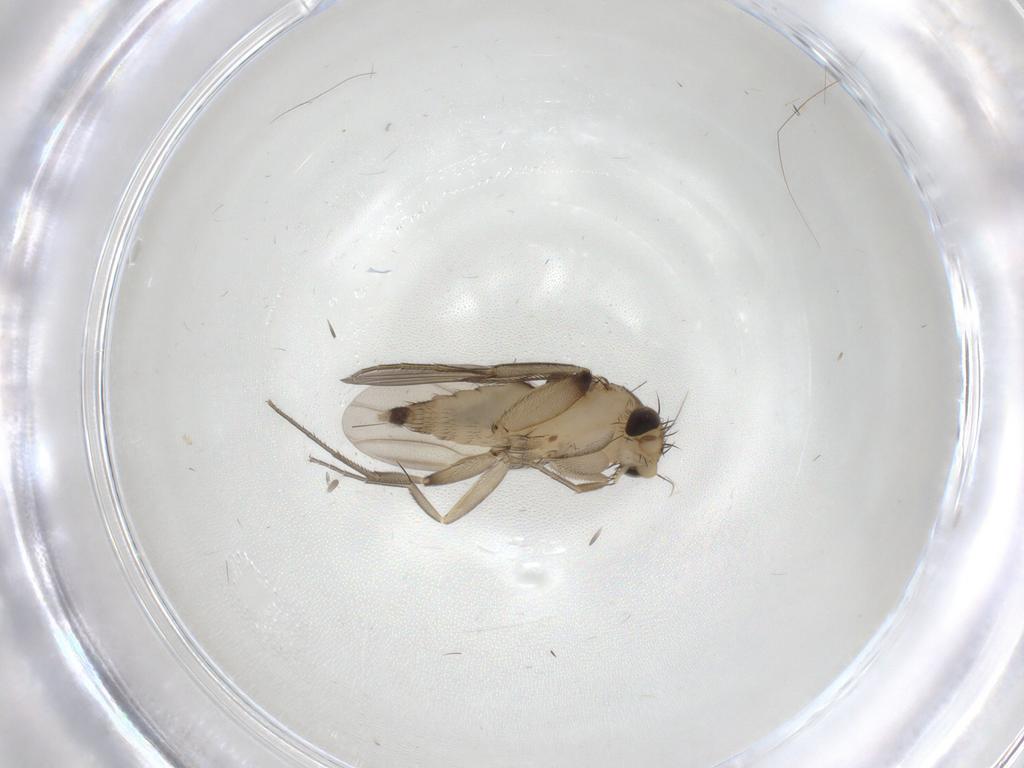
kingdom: Animalia
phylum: Arthropoda
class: Insecta
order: Diptera
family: Phoridae
